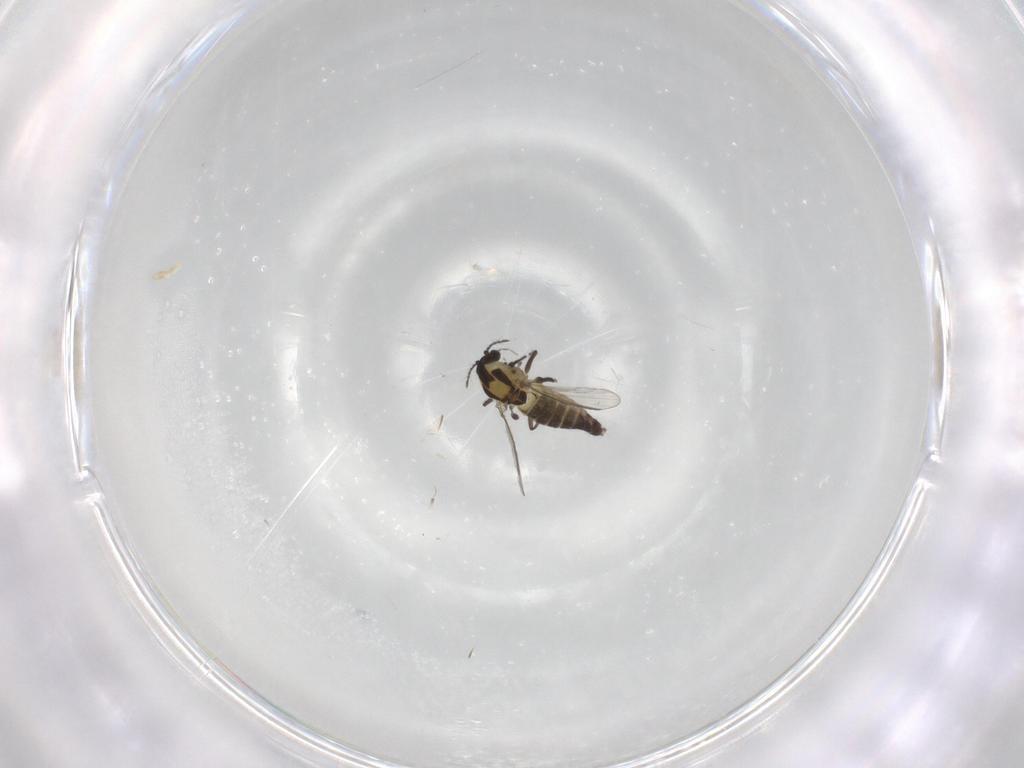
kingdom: Animalia
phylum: Arthropoda
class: Insecta
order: Diptera
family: Chironomidae
